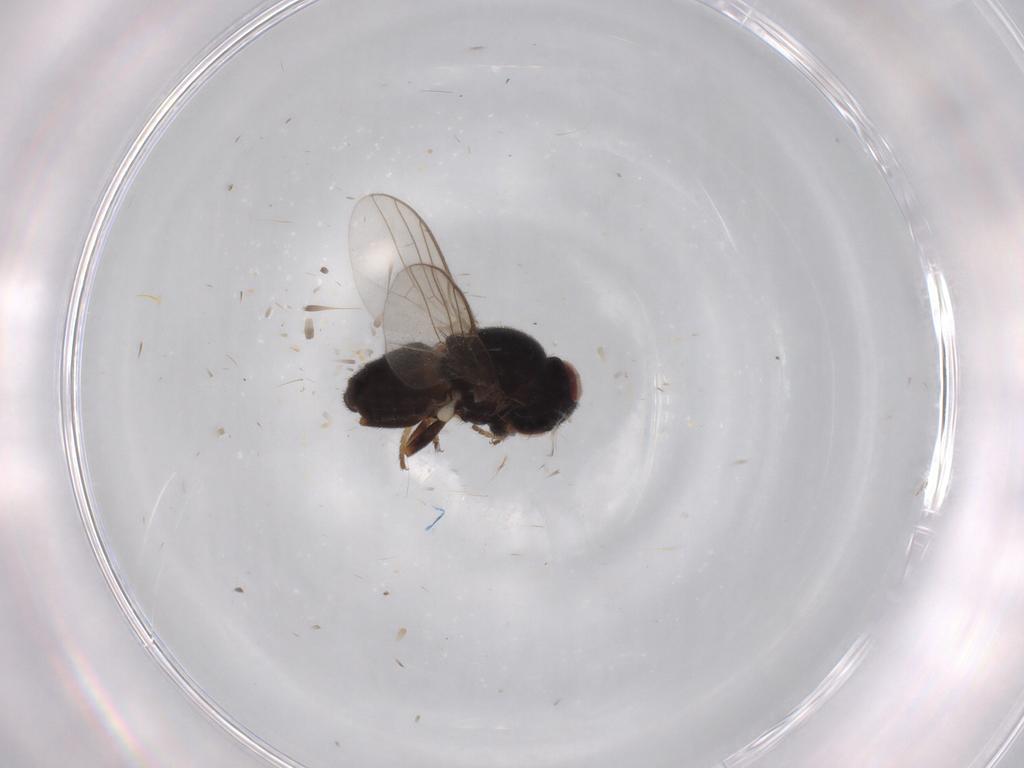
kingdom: Animalia
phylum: Arthropoda
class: Insecta
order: Diptera
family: Chloropidae
